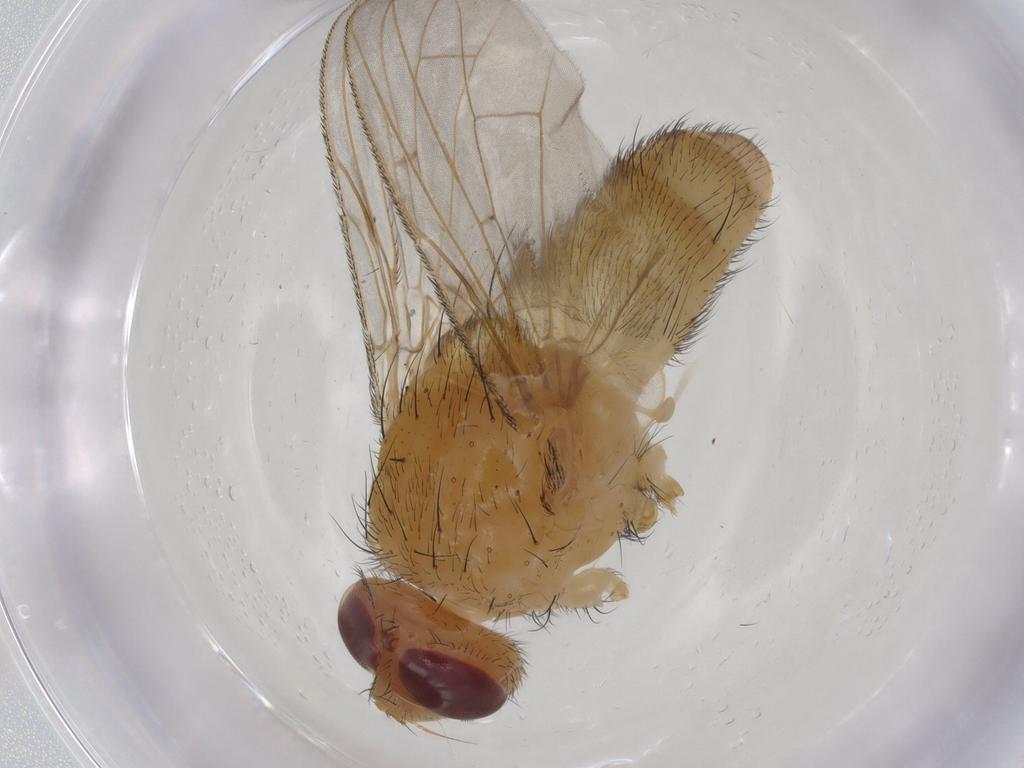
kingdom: Animalia
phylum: Arthropoda
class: Insecta
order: Diptera
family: Tachinidae
